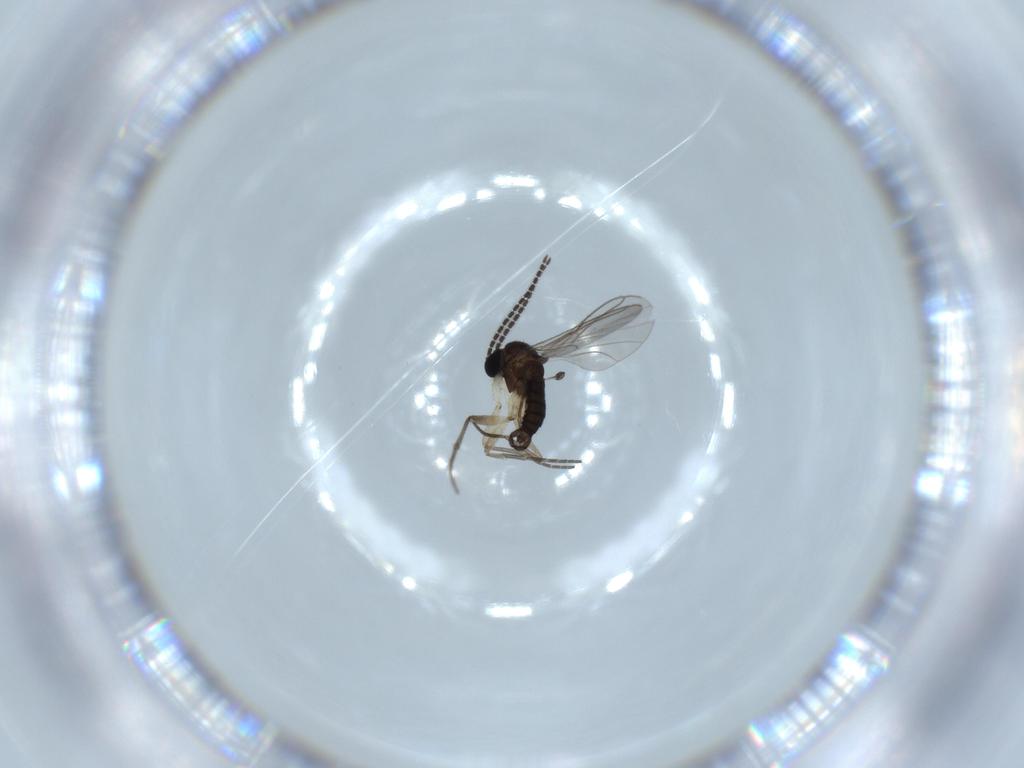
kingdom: Animalia
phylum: Arthropoda
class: Insecta
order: Diptera
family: Sciaridae
